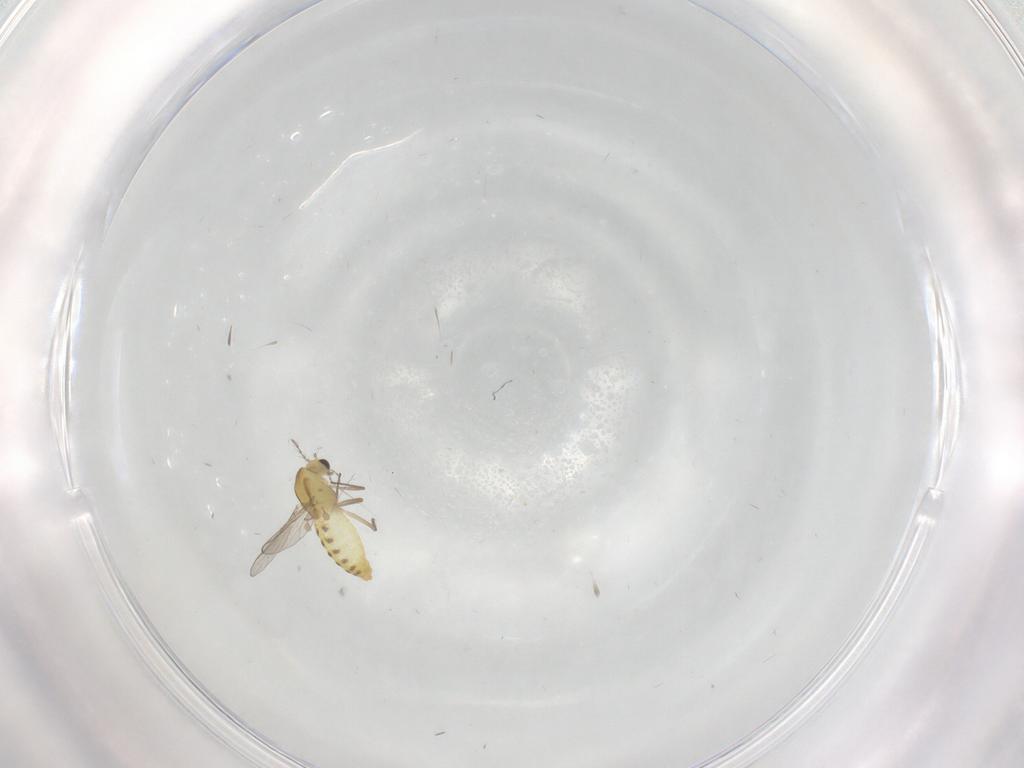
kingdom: Animalia
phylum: Arthropoda
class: Insecta
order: Diptera
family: Chironomidae
